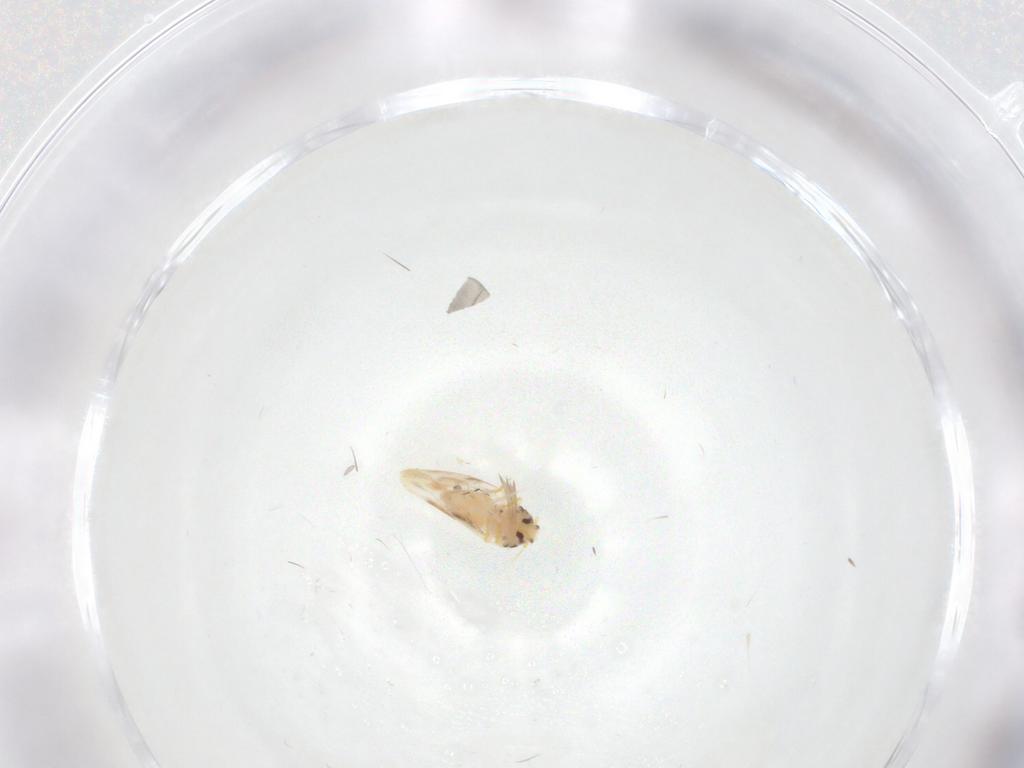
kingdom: Animalia
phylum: Arthropoda
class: Insecta
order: Hemiptera
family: Aleyrodidae
